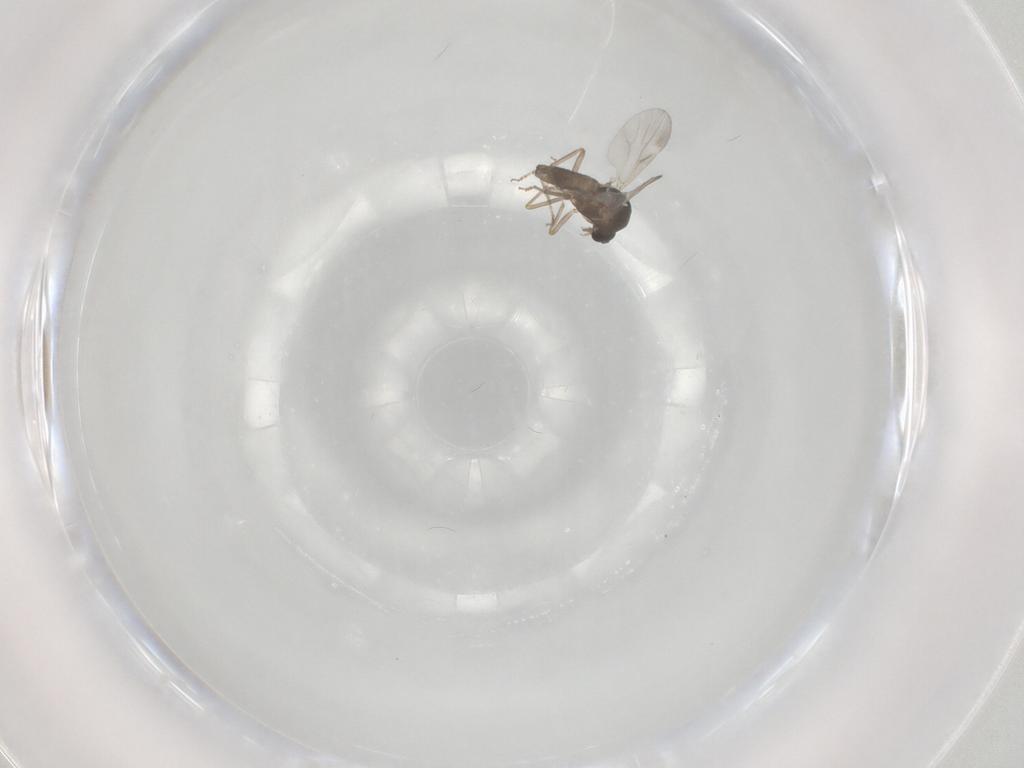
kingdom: Animalia
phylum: Arthropoda
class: Insecta
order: Diptera
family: Ceratopogonidae
